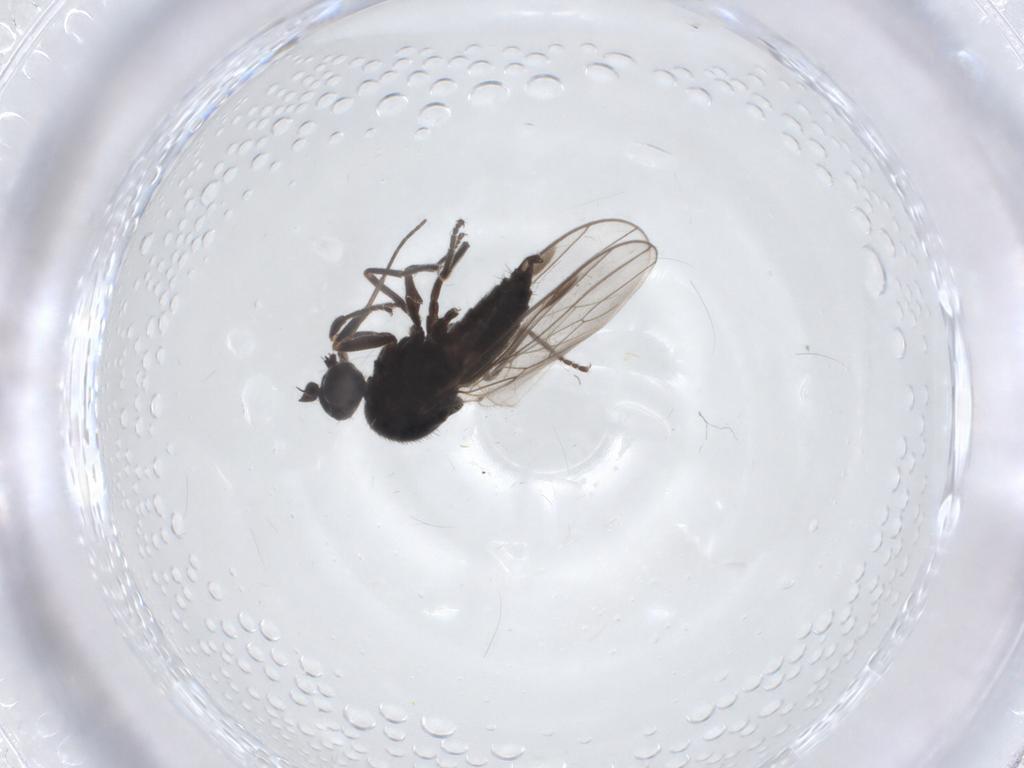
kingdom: Animalia
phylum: Arthropoda
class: Insecta
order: Diptera
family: Hybotidae
